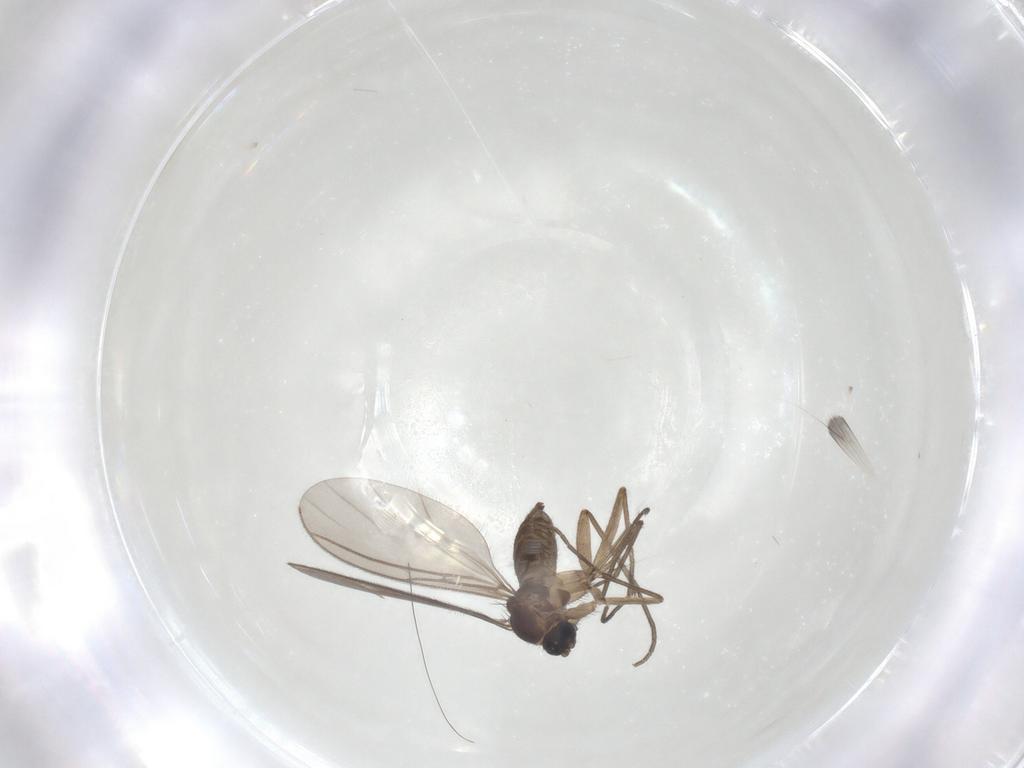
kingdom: Animalia
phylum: Arthropoda
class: Insecta
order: Diptera
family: Sciaridae
